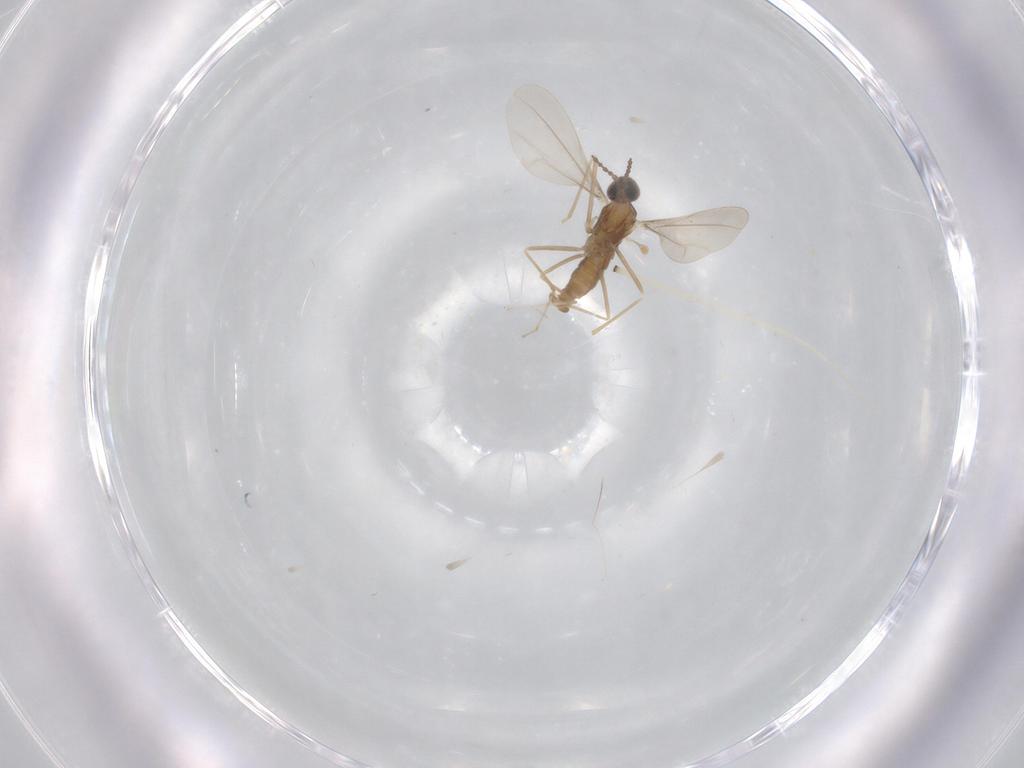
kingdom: Animalia
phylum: Arthropoda
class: Insecta
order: Diptera
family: Cecidomyiidae
